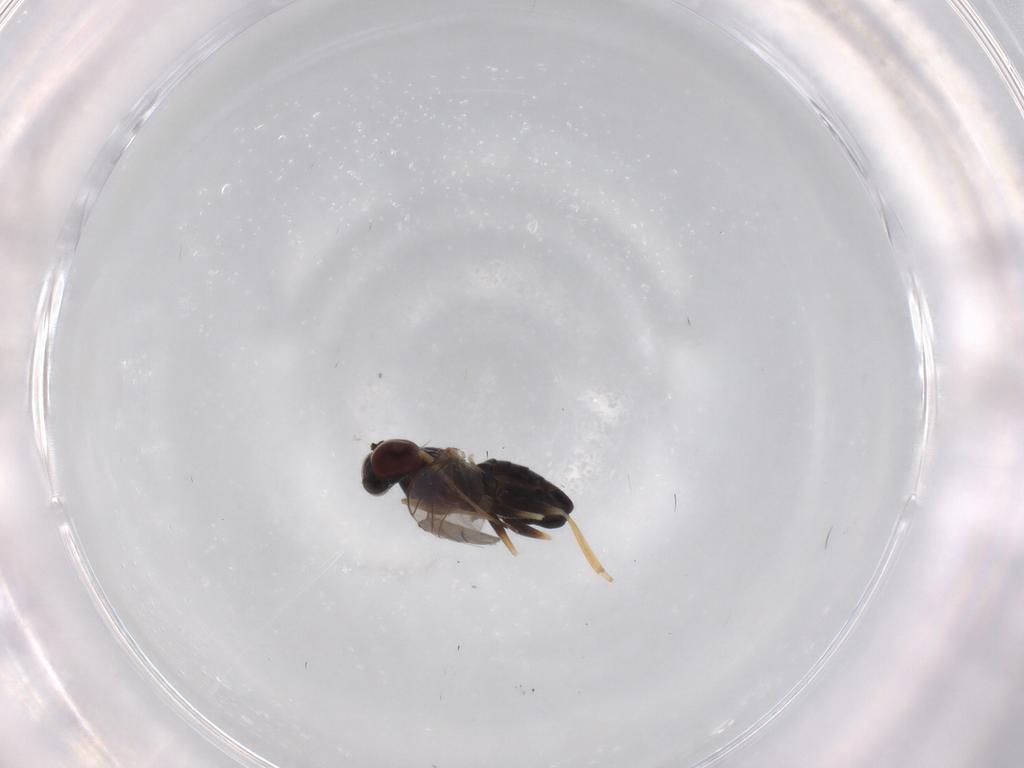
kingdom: Animalia
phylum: Arthropoda
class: Insecta
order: Diptera
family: Dolichopodidae
